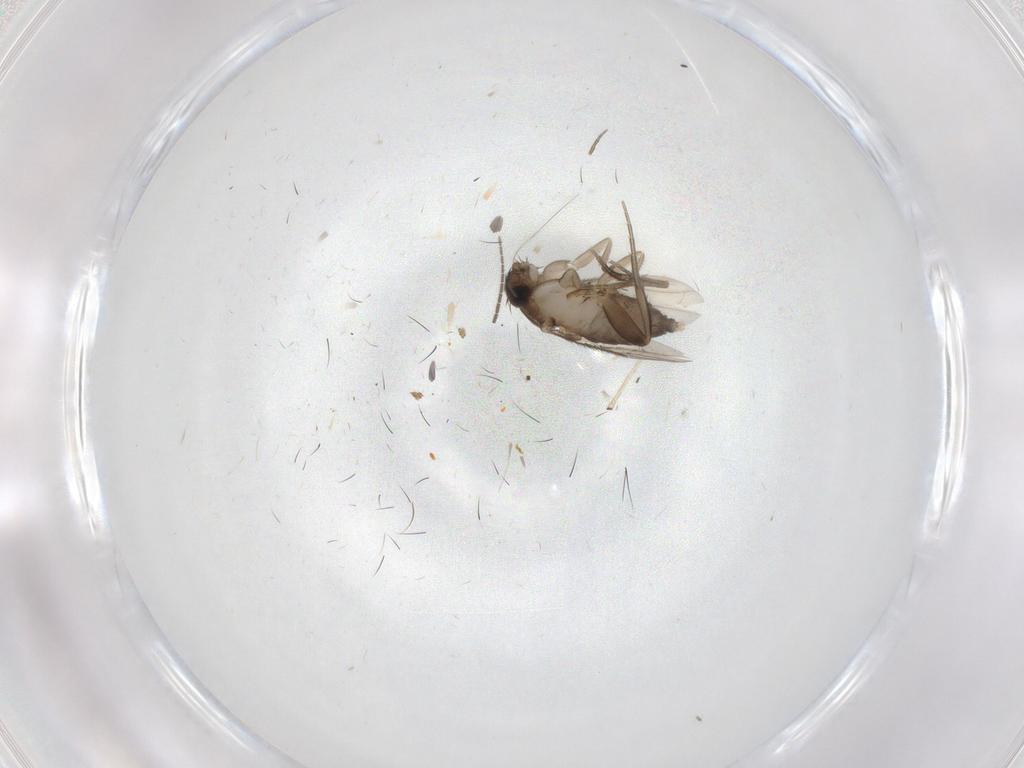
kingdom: Animalia
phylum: Arthropoda
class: Insecta
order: Diptera
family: Phoridae
